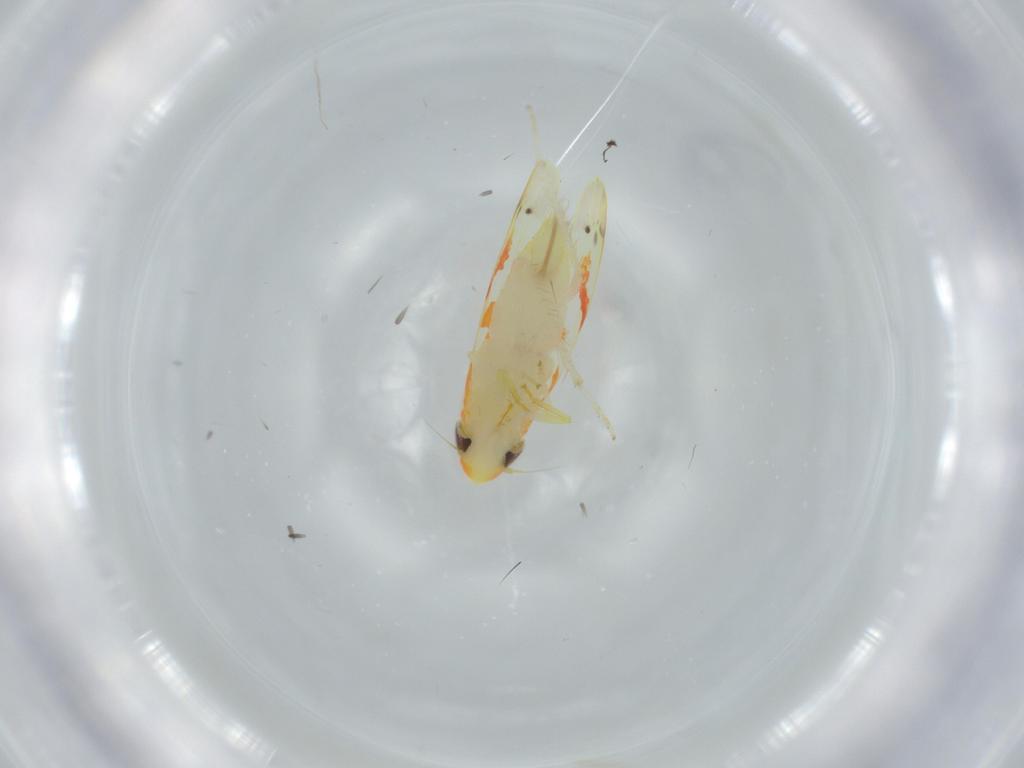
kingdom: Animalia
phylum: Arthropoda
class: Insecta
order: Hemiptera
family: Cicadellidae
